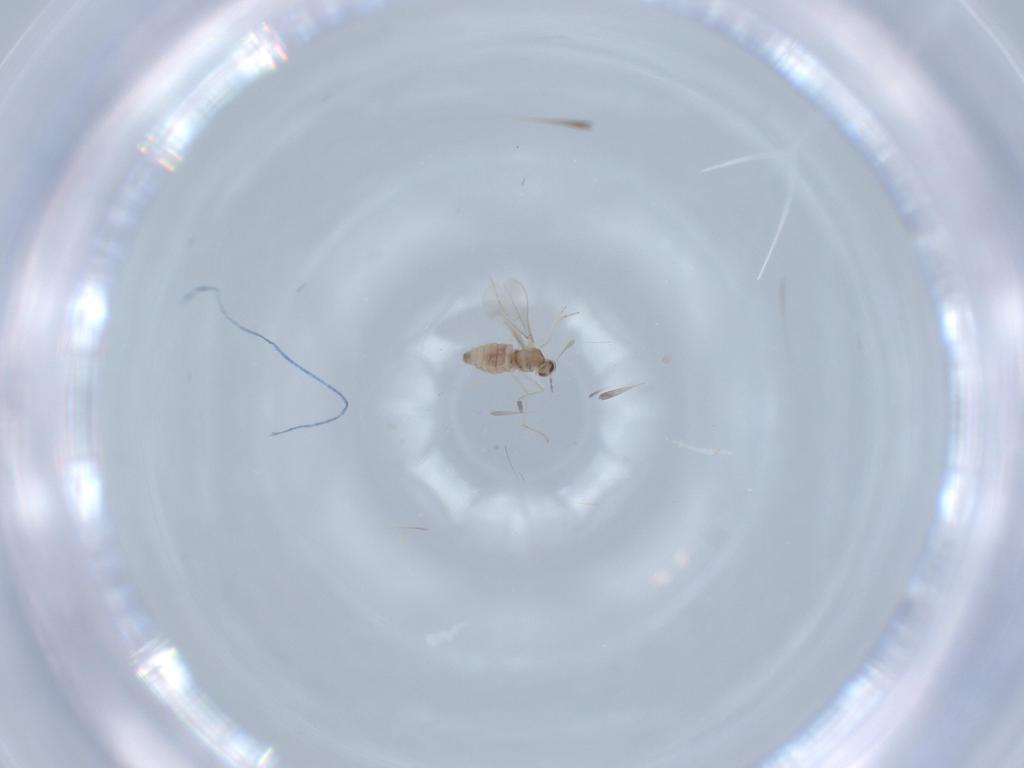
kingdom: Animalia
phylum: Arthropoda
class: Insecta
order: Diptera
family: Cecidomyiidae
